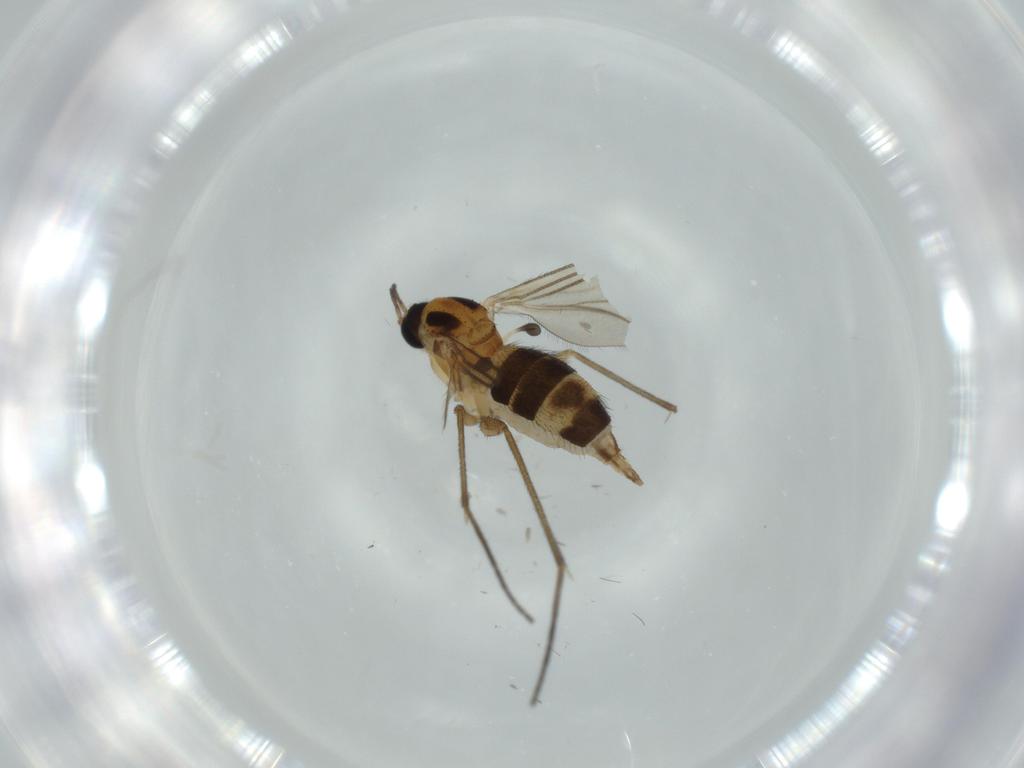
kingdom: Animalia
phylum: Arthropoda
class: Insecta
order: Diptera
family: Sciaridae
